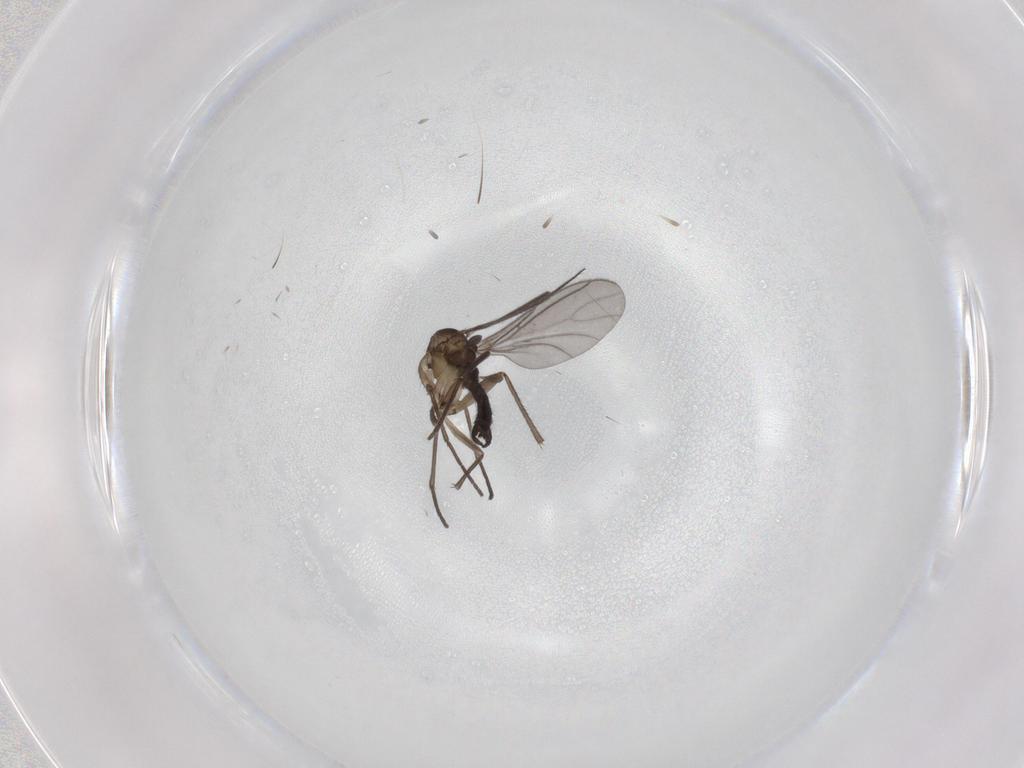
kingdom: Animalia
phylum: Arthropoda
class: Insecta
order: Diptera
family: Sciaridae
